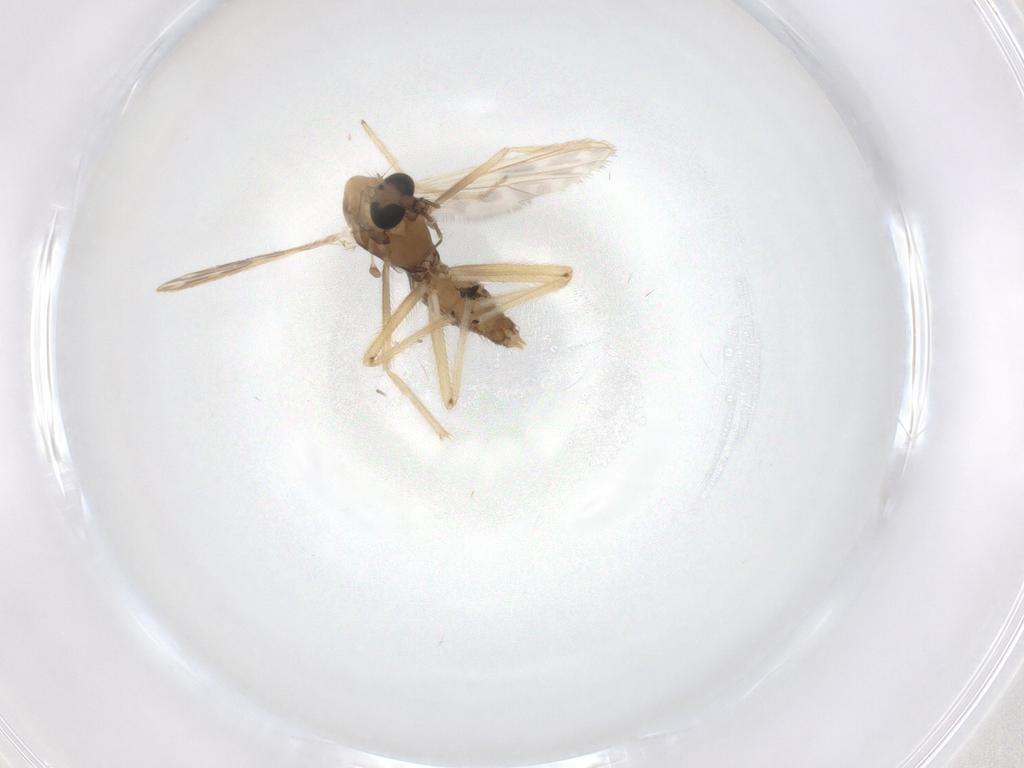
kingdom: Animalia
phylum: Arthropoda
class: Insecta
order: Diptera
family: Chironomidae
